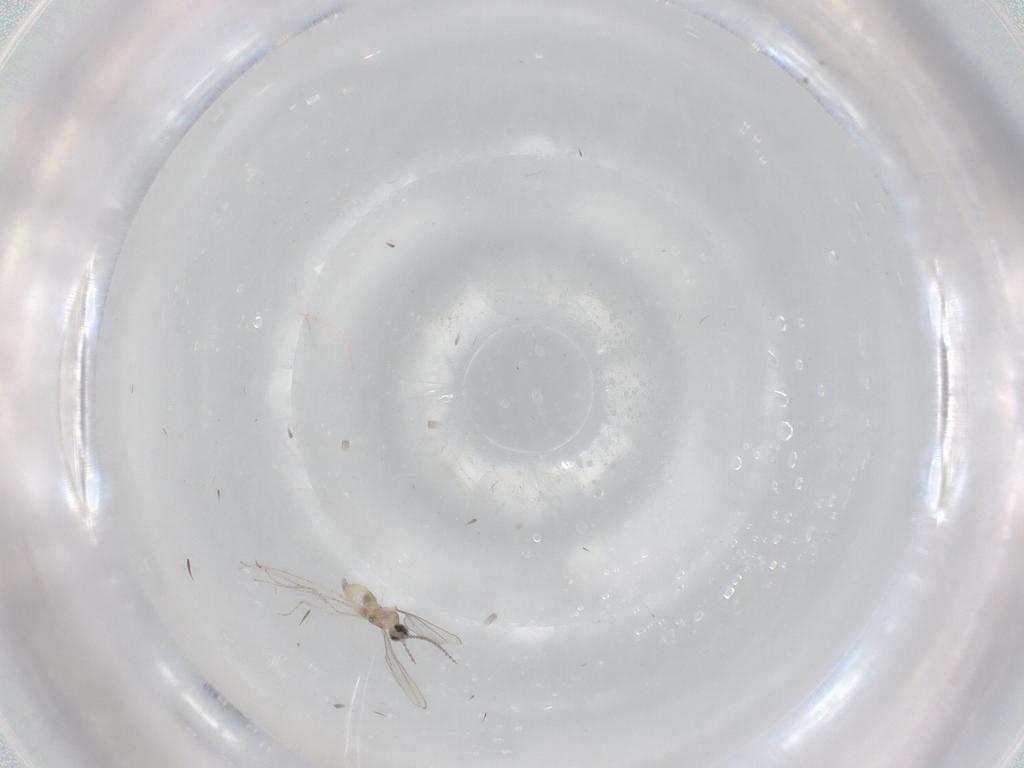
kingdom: Animalia
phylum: Arthropoda
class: Insecta
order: Diptera
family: Cecidomyiidae
